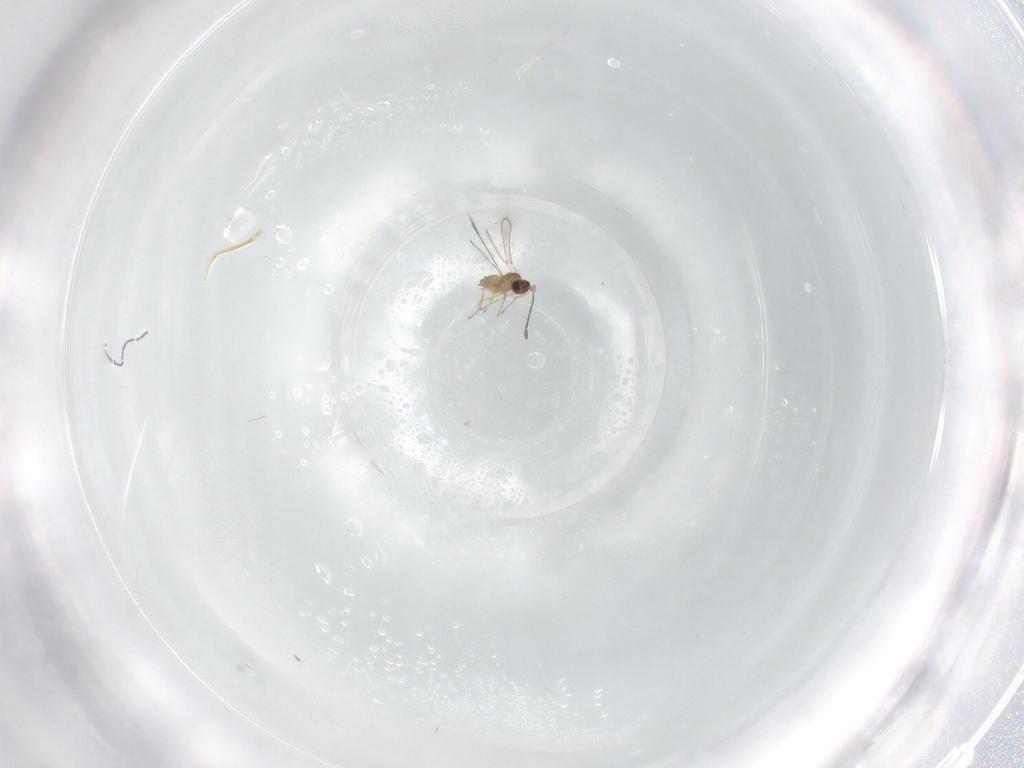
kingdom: Animalia
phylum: Arthropoda
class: Insecta
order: Hymenoptera
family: Mymaridae
